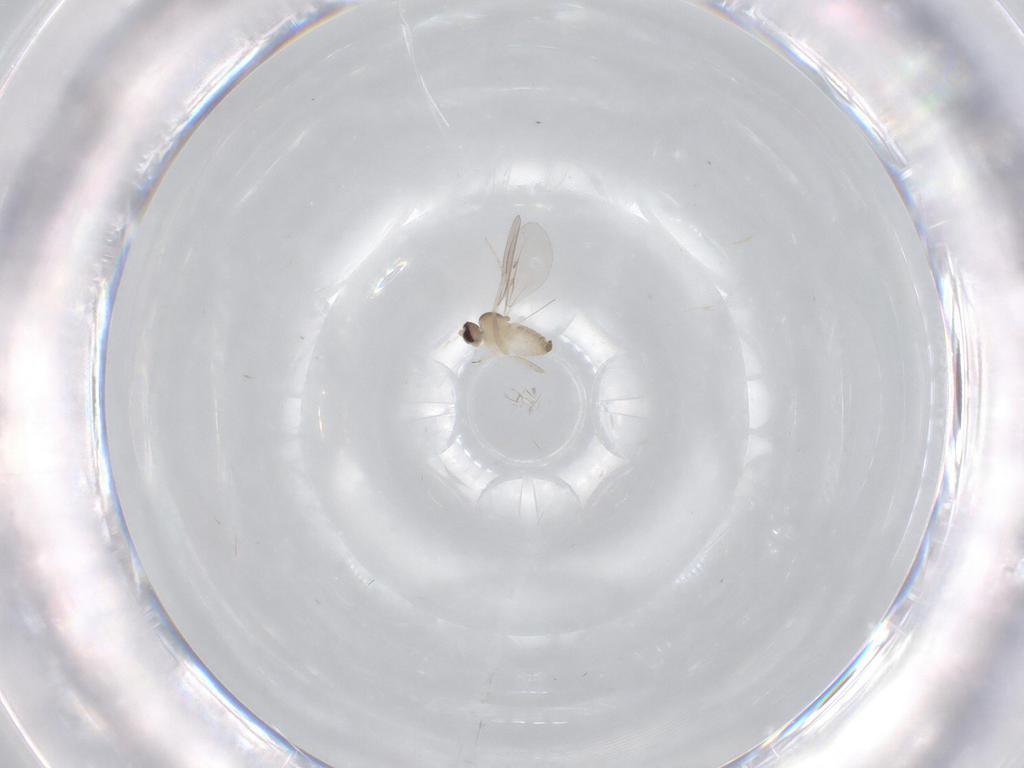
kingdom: Animalia
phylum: Arthropoda
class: Insecta
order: Diptera
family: Cecidomyiidae
